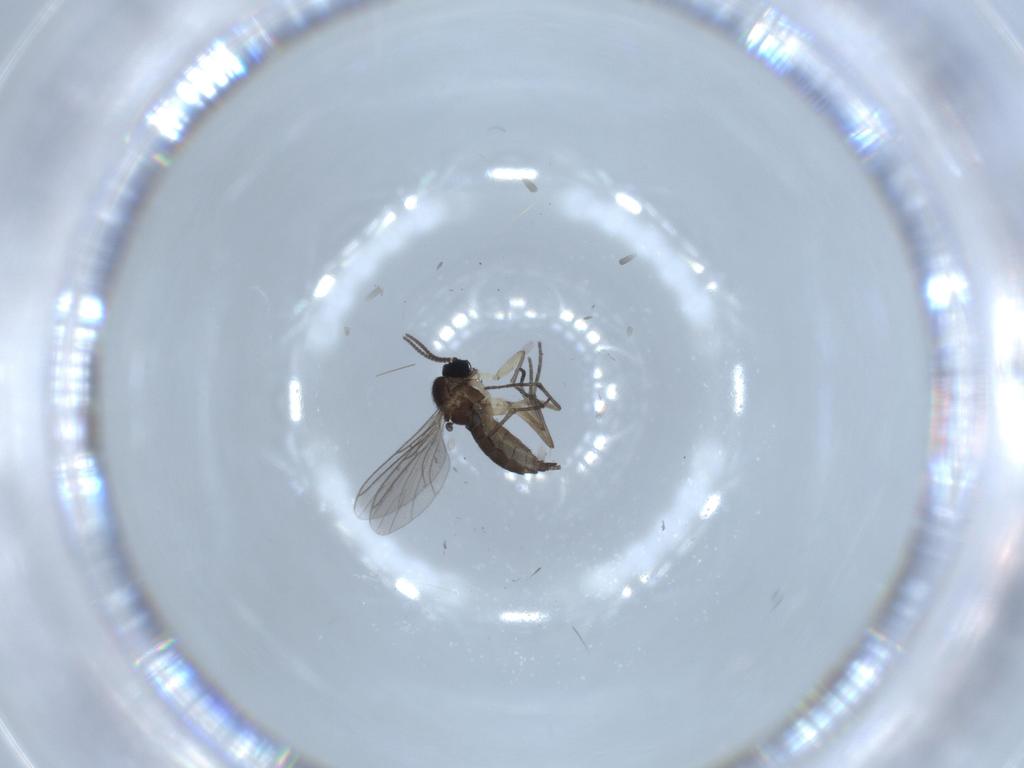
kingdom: Animalia
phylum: Arthropoda
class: Insecta
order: Diptera
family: Sciaridae
